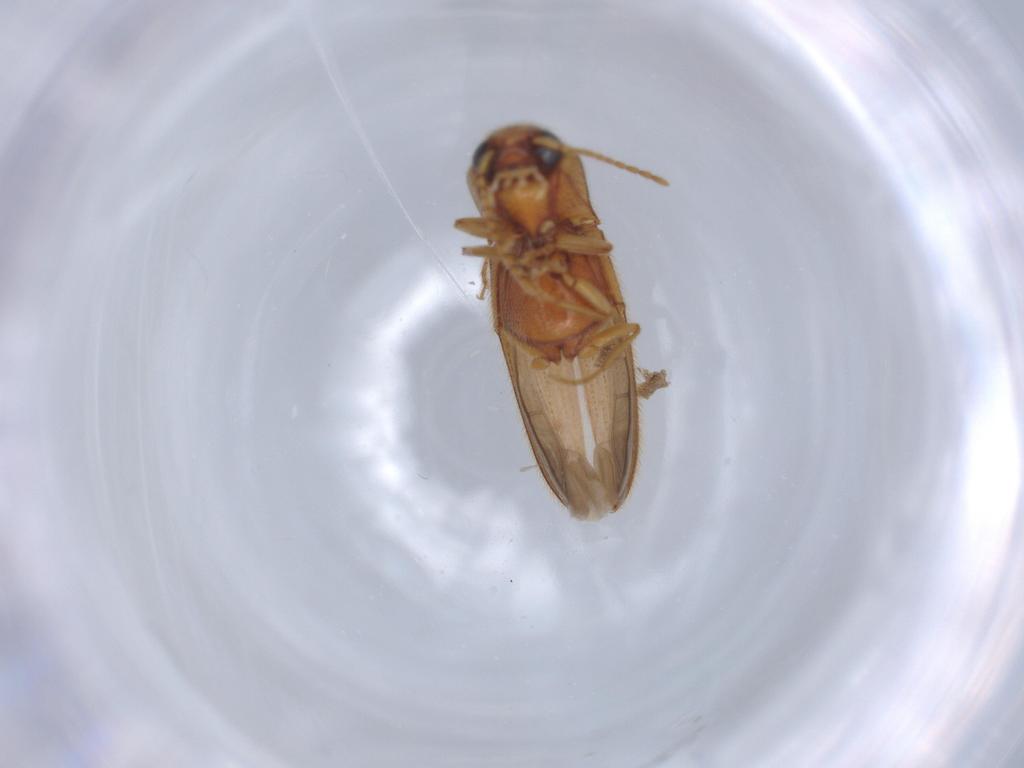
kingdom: Animalia
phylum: Arthropoda
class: Insecta
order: Coleoptera
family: Elateridae
